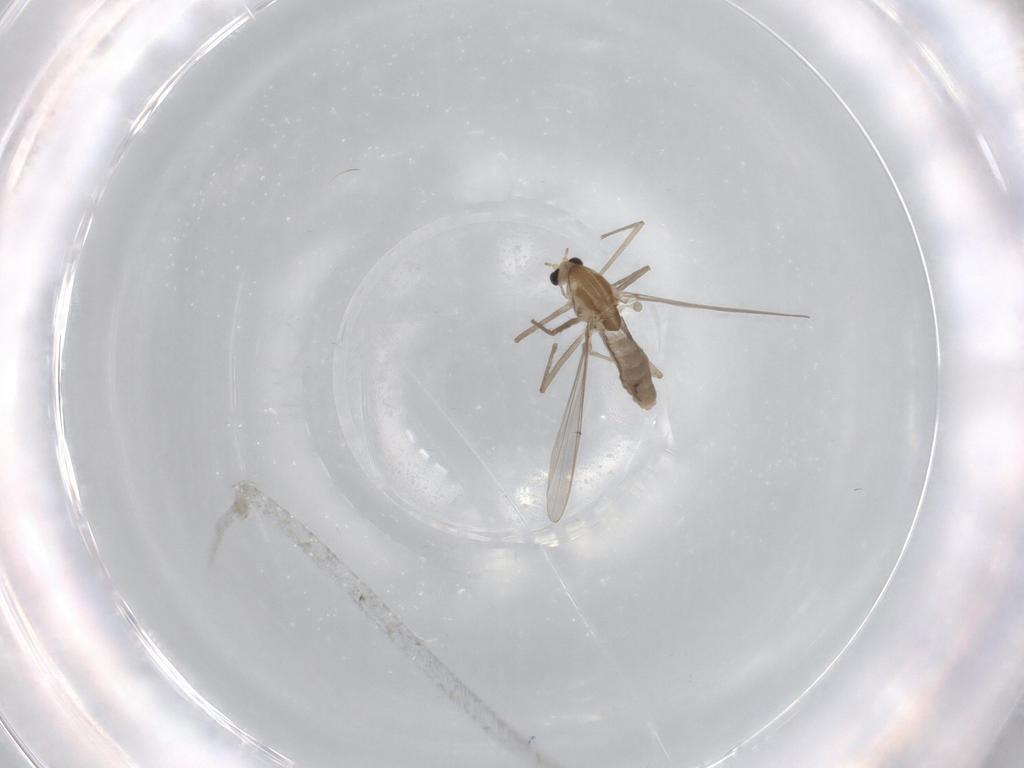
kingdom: Animalia
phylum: Arthropoda
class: Insecta
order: Diptera
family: Chironomidae
